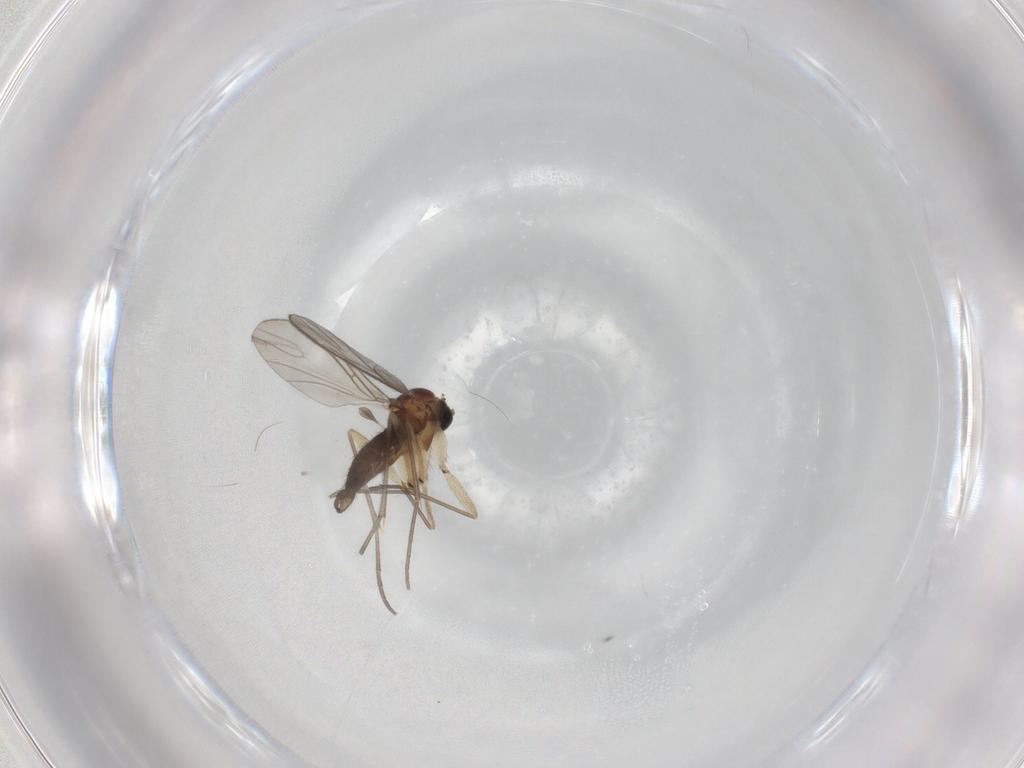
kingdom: Animalia
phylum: Arthropoda
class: Insecta
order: Diptera
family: Sciaridae
